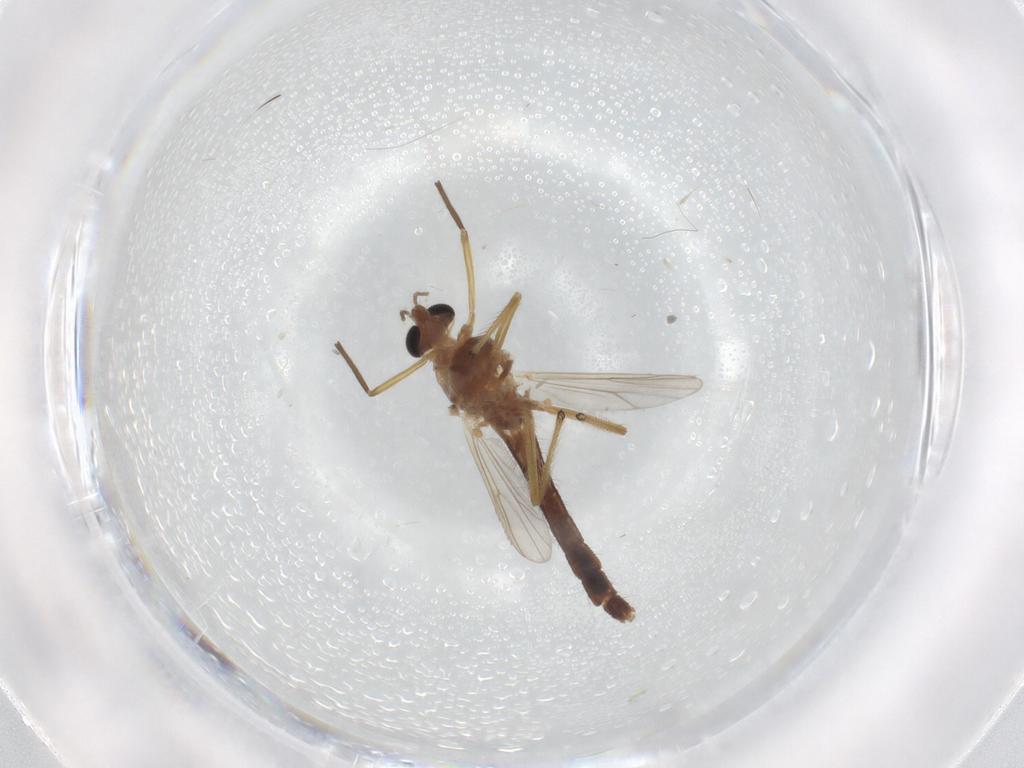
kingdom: Animalia
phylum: Arthropoda
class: Insecta
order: Diptera
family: Chironomidae
